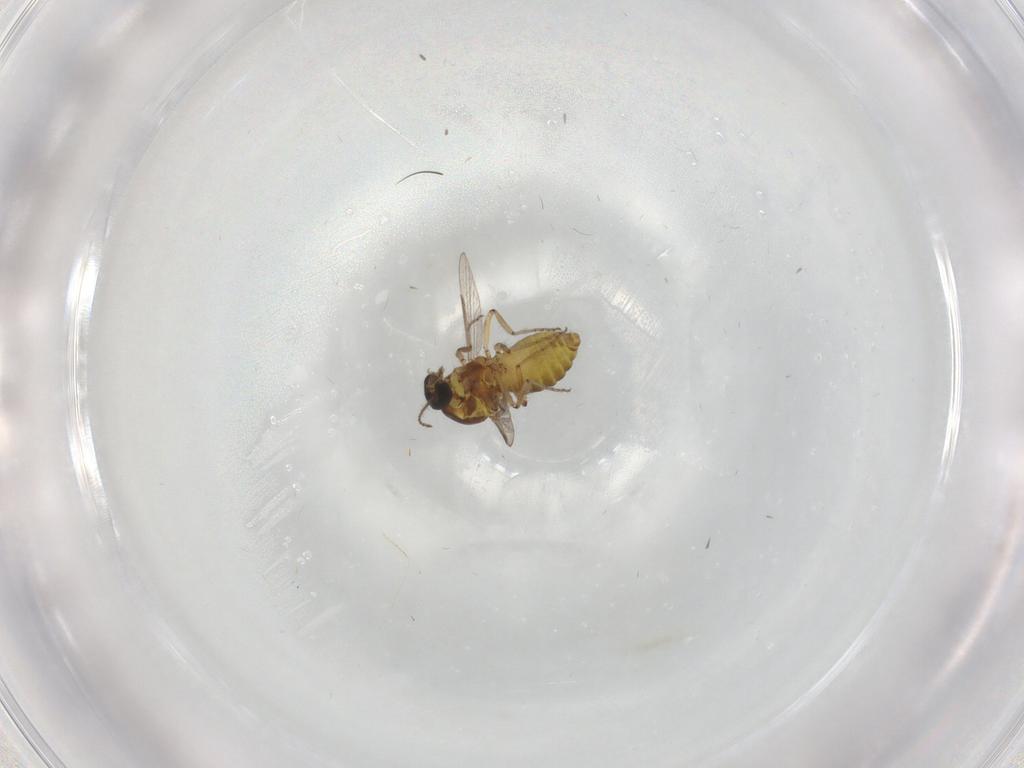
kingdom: Animalia
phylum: Arthropoda
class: Insecta
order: Diptera
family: Ceratopogonidae
